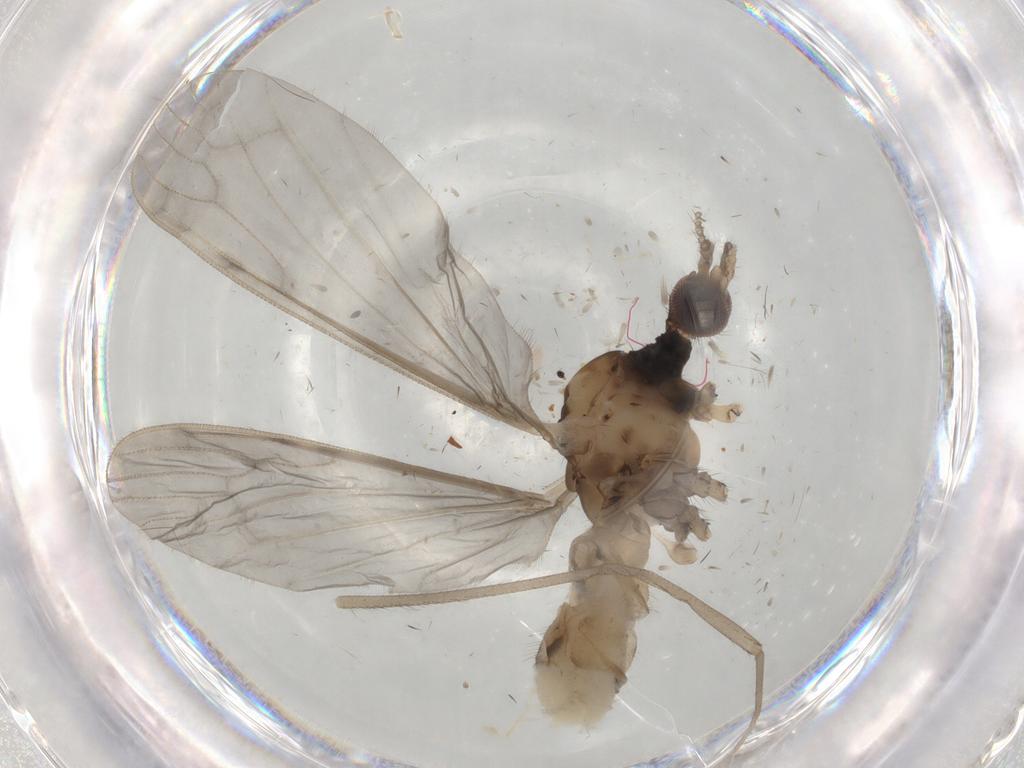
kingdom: Animalia
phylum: Arthropoda
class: Insecta
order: Diptera
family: Psychodidae
